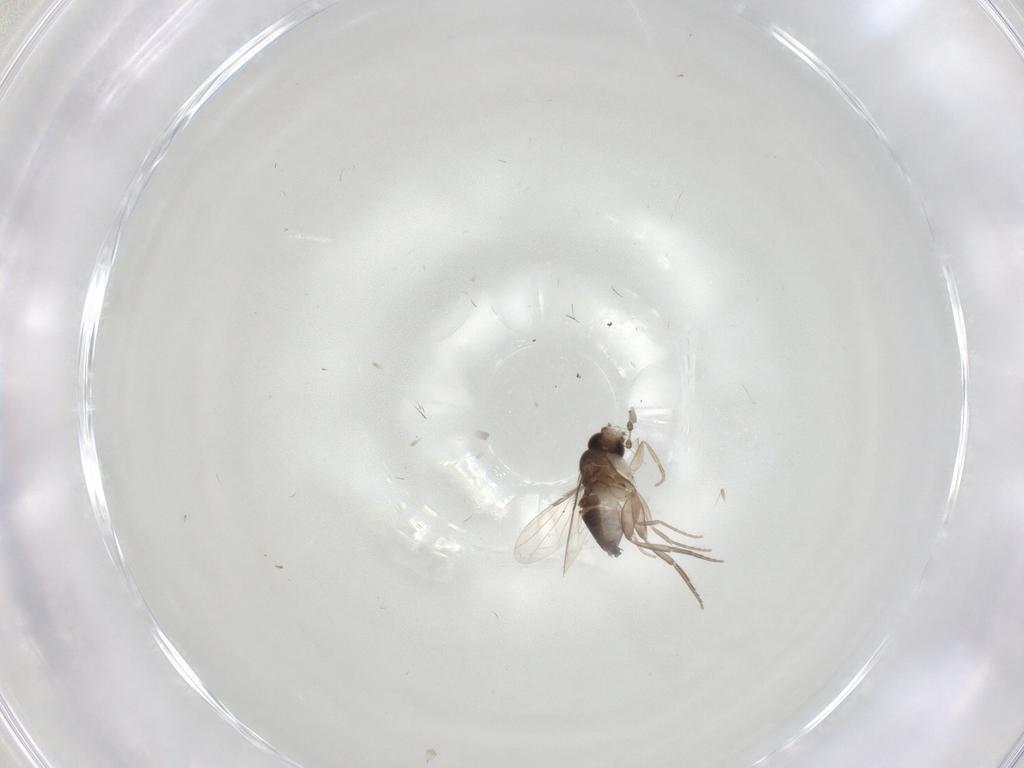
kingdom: Animalia
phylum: Arthropoda
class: Insecta
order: Diptera
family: Phoridae
